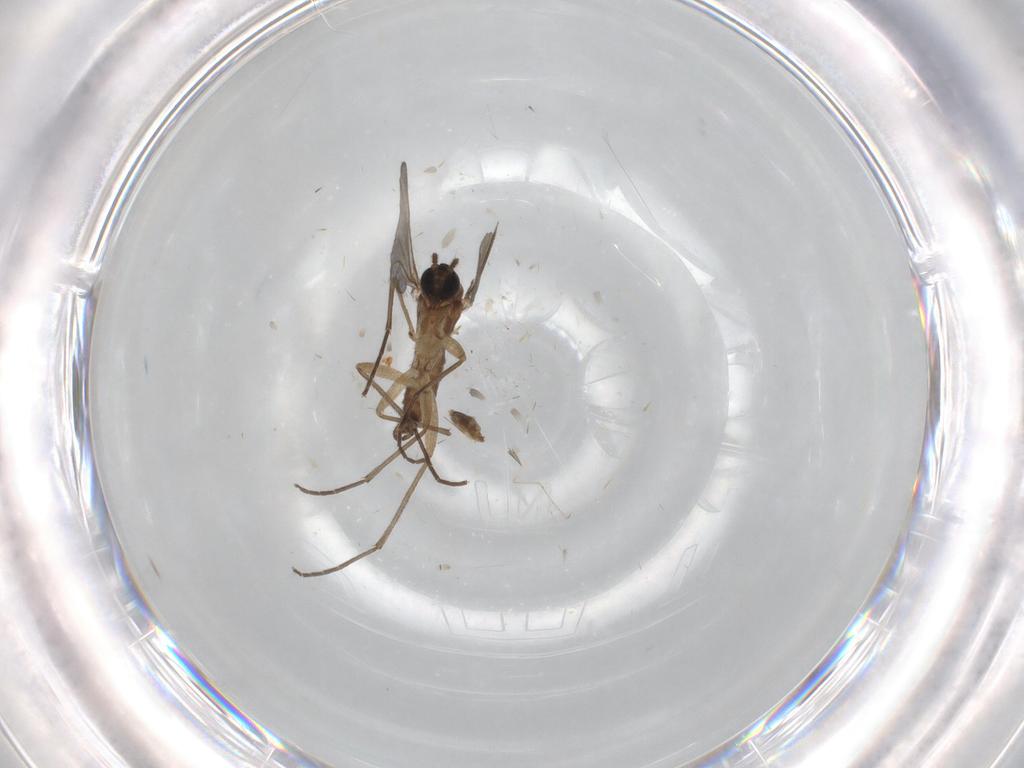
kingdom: Animalia
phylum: Arthropoda
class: Insecta
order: Diptera
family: Sciaridae
